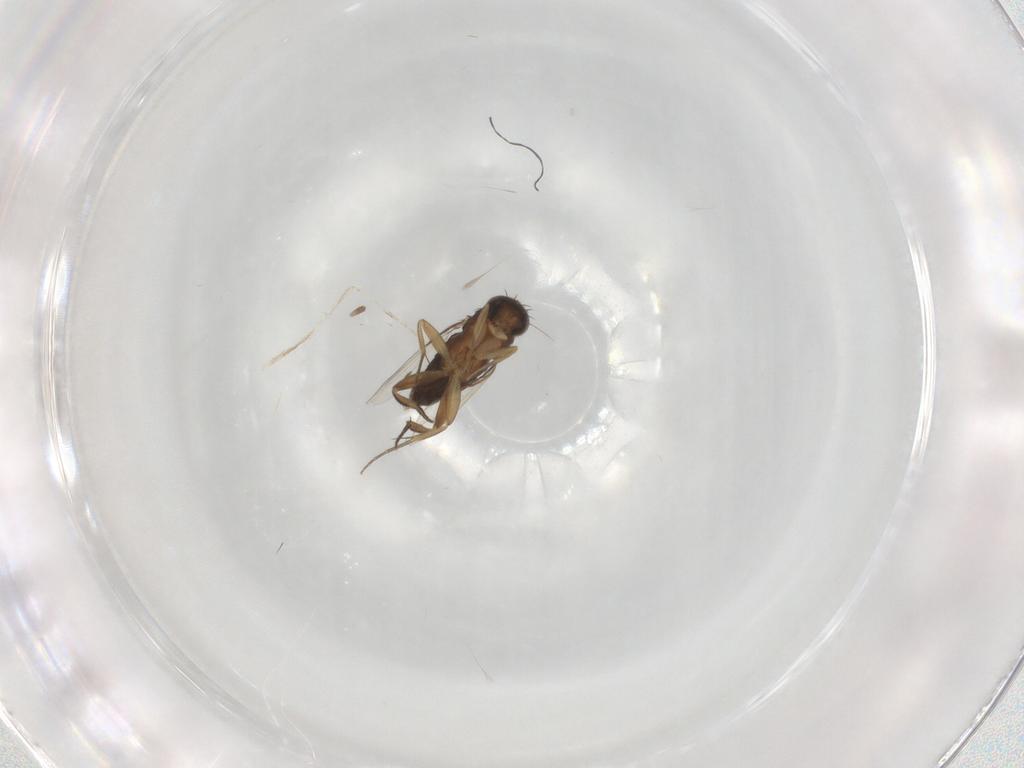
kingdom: Animalia
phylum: Arthropoda
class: Insecta
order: Diptera
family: Phoridae
